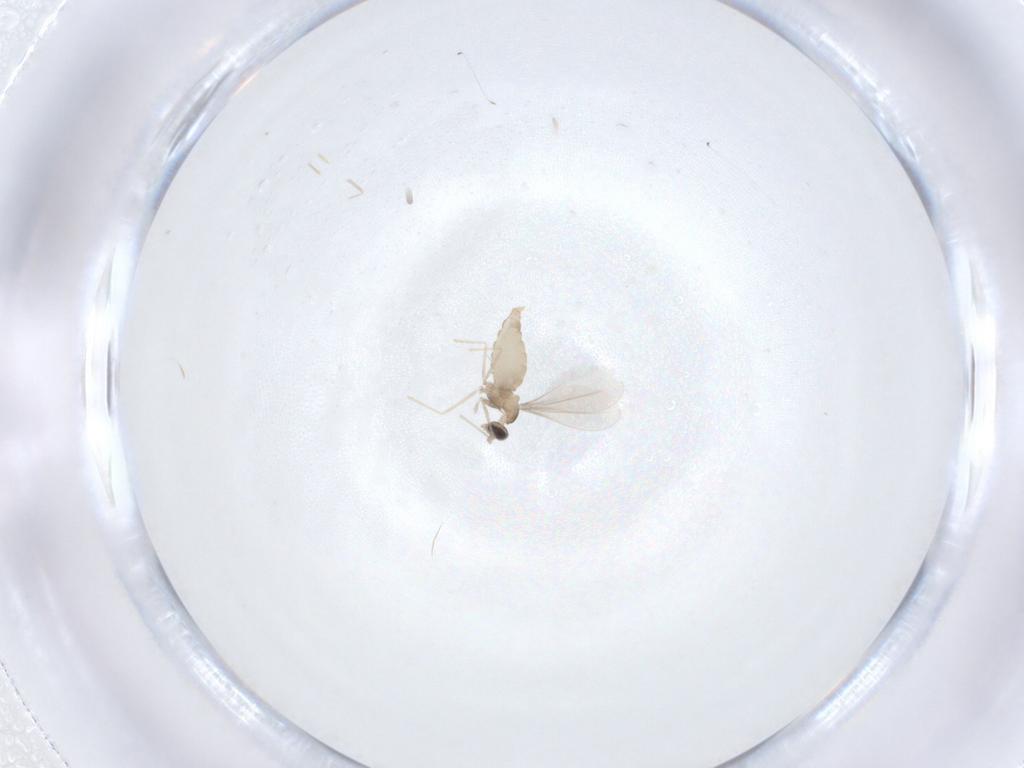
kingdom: Animalia
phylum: Arthropoda
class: Insecta
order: Diptera
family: Cecidomyiidae
